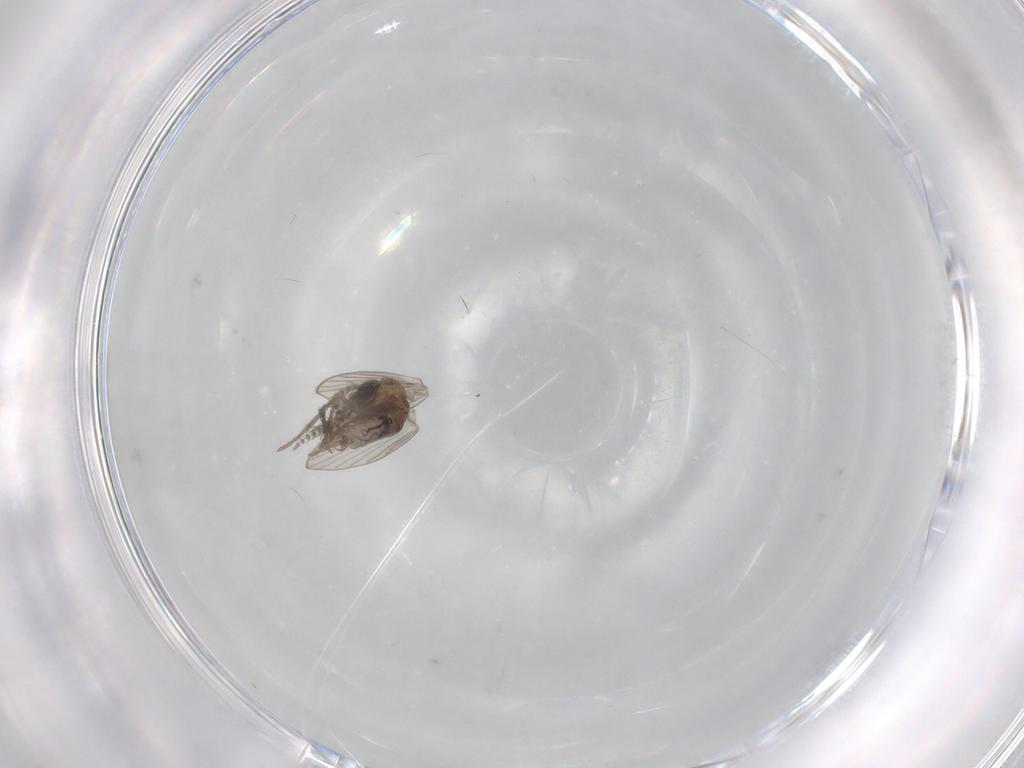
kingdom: Animalia
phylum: Arthropoda
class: Insecta
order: Diptera
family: Psychodidae
